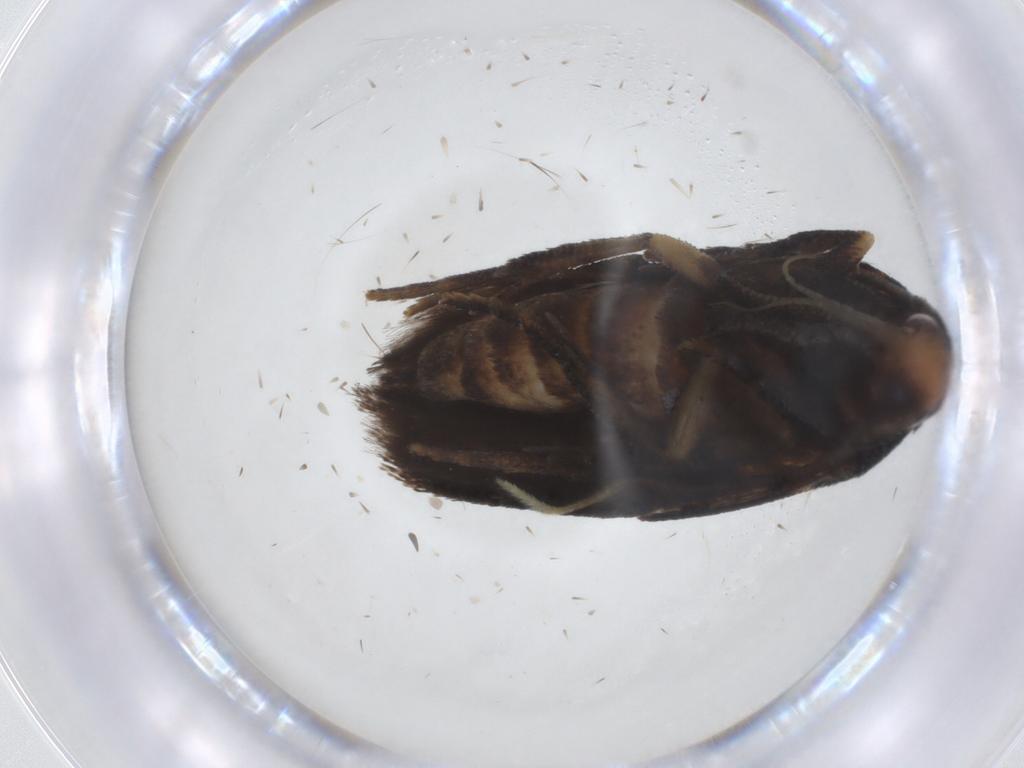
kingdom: Animalia
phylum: Arthropoda
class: Insecta
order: Lepidoptera
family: Oecophoridae
